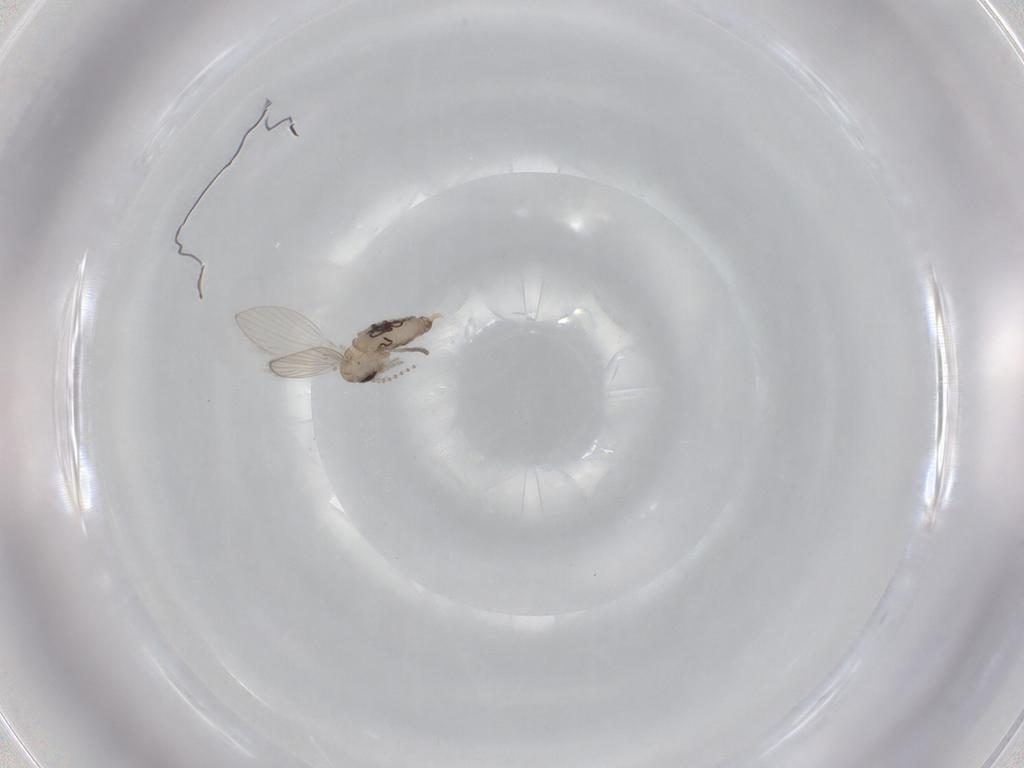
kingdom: Animalia
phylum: Arthropoda
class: Insecta
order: Diptera
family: Psychodidae
